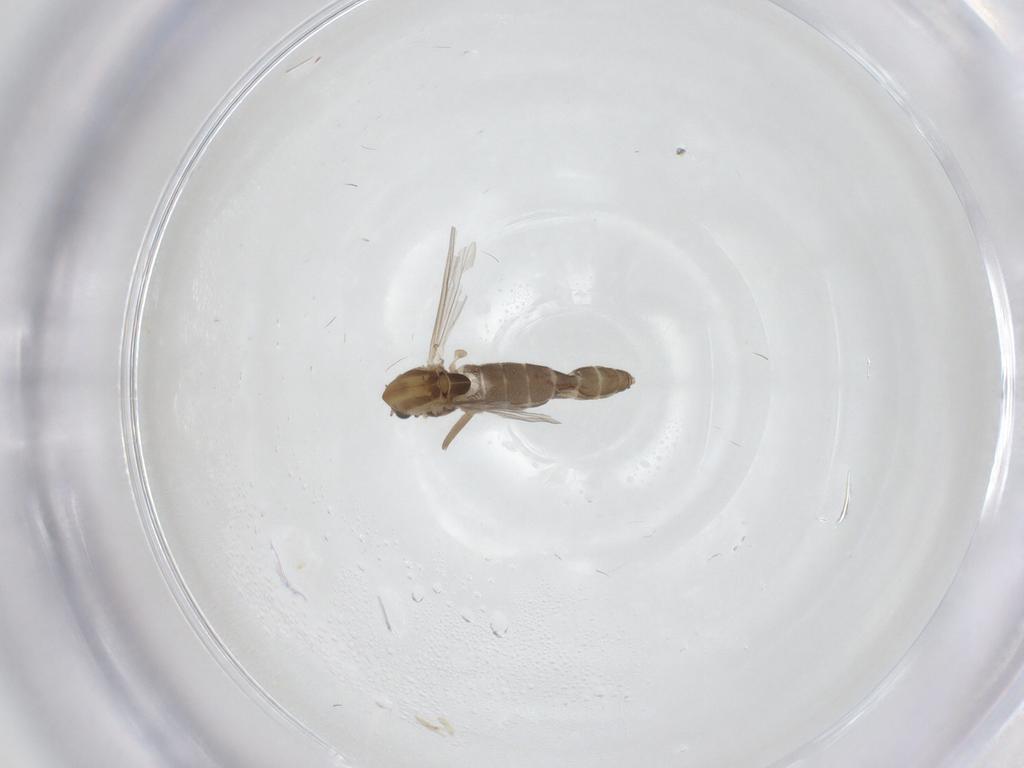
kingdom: Animalia
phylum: Arthropoda
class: Insecta
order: Diptera
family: Chironomidae
